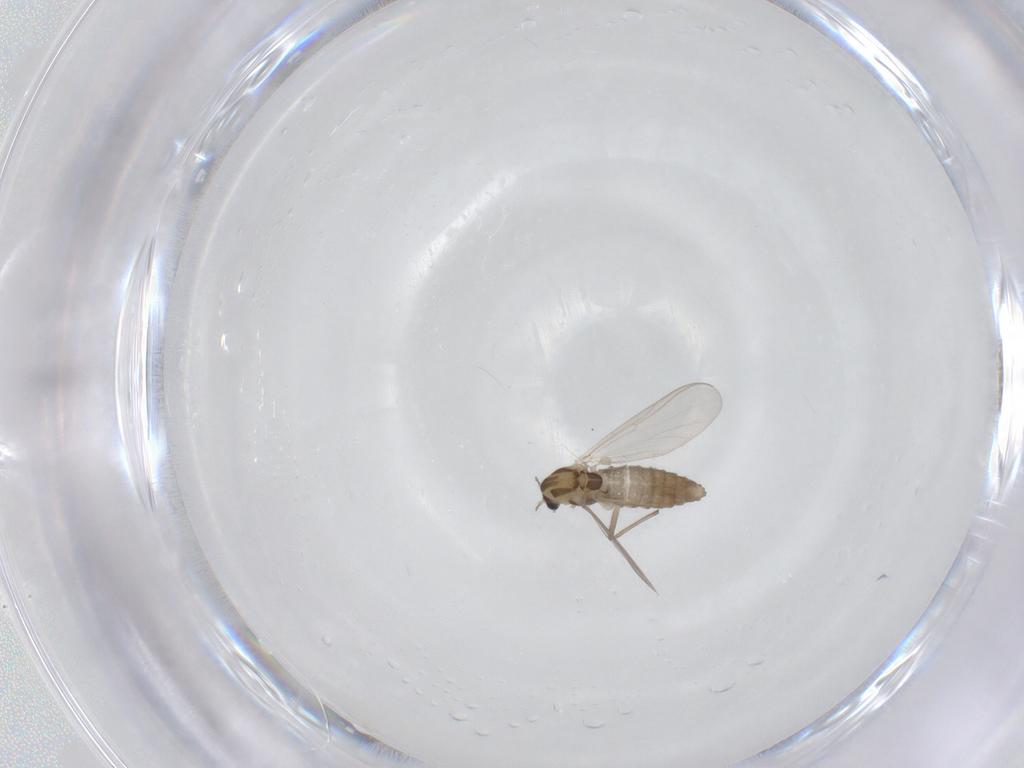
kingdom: Animalia
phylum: Arthropoda
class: Insecta
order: Diptera
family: Chironomidae
